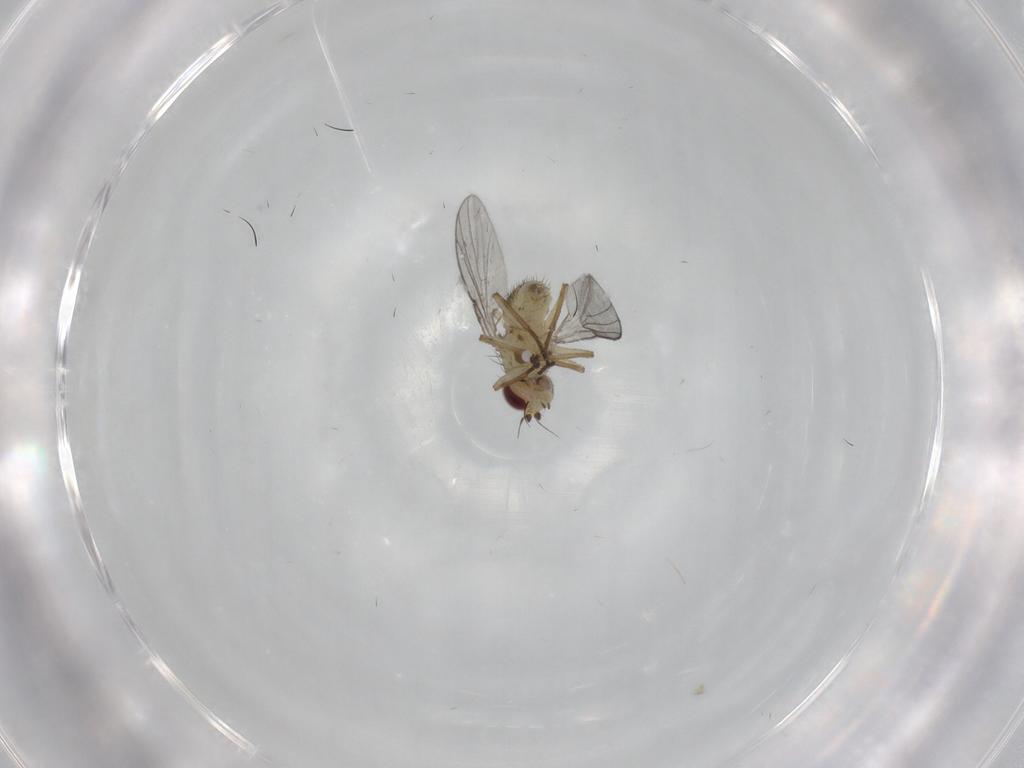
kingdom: Animalia
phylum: Arthropoda
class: Insecta
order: Diptera
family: Agromyzidae
